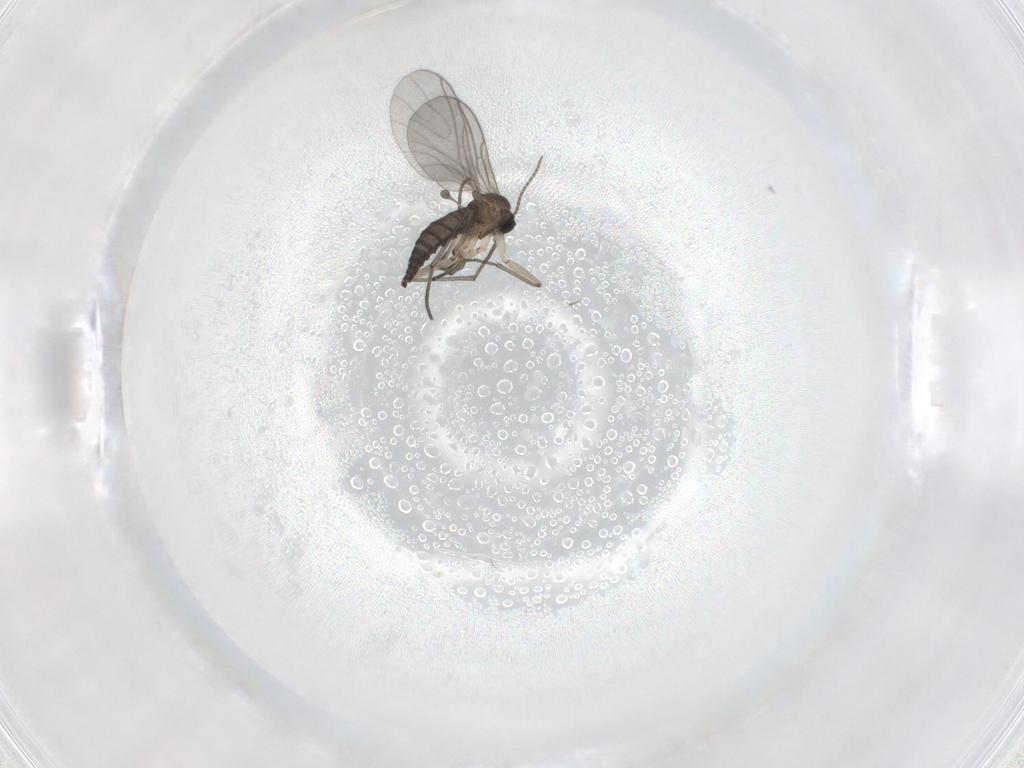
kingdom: Animalia
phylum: Arthropoda
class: Insecta
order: Diptera
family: Sciaridae
